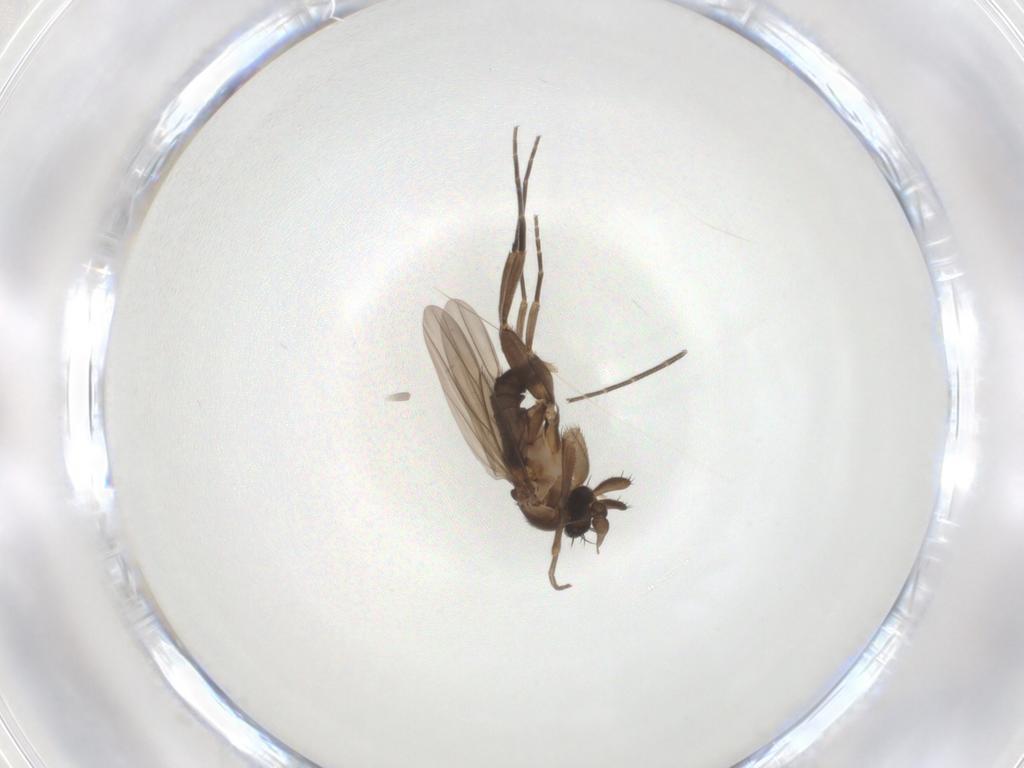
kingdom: Animalia
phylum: Arthropoda
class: Insecta
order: Diptera
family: Phoridae
